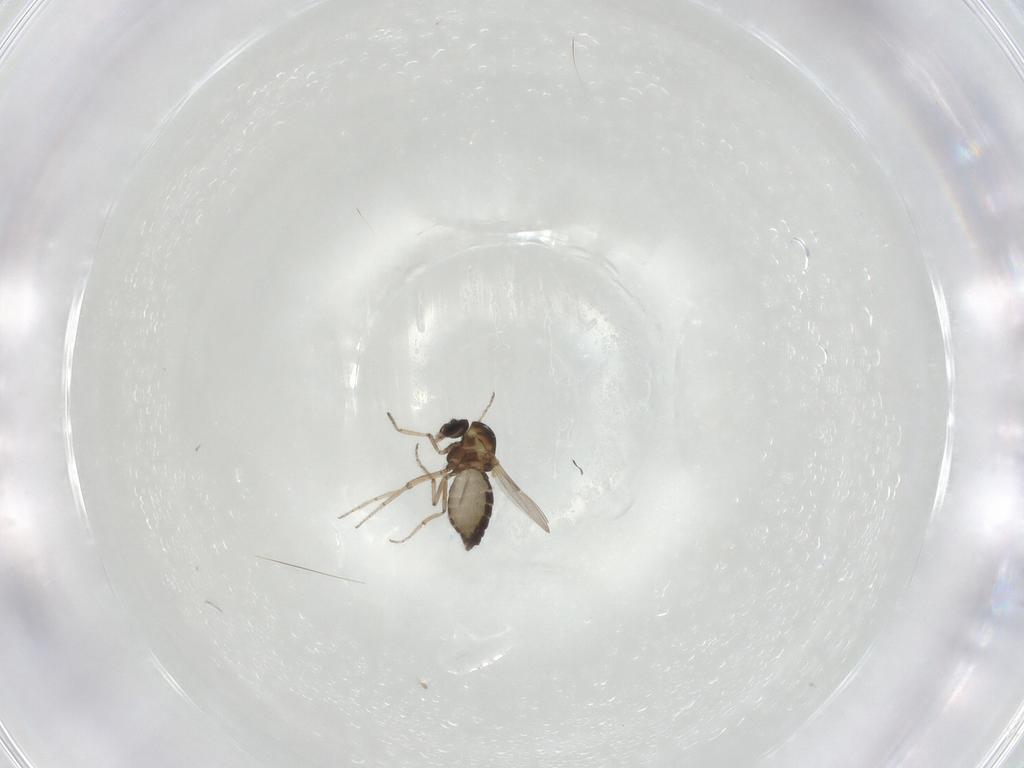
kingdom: Animalia
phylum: Arthropoda
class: Insecta
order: Diptera
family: Ceratopogonidae
